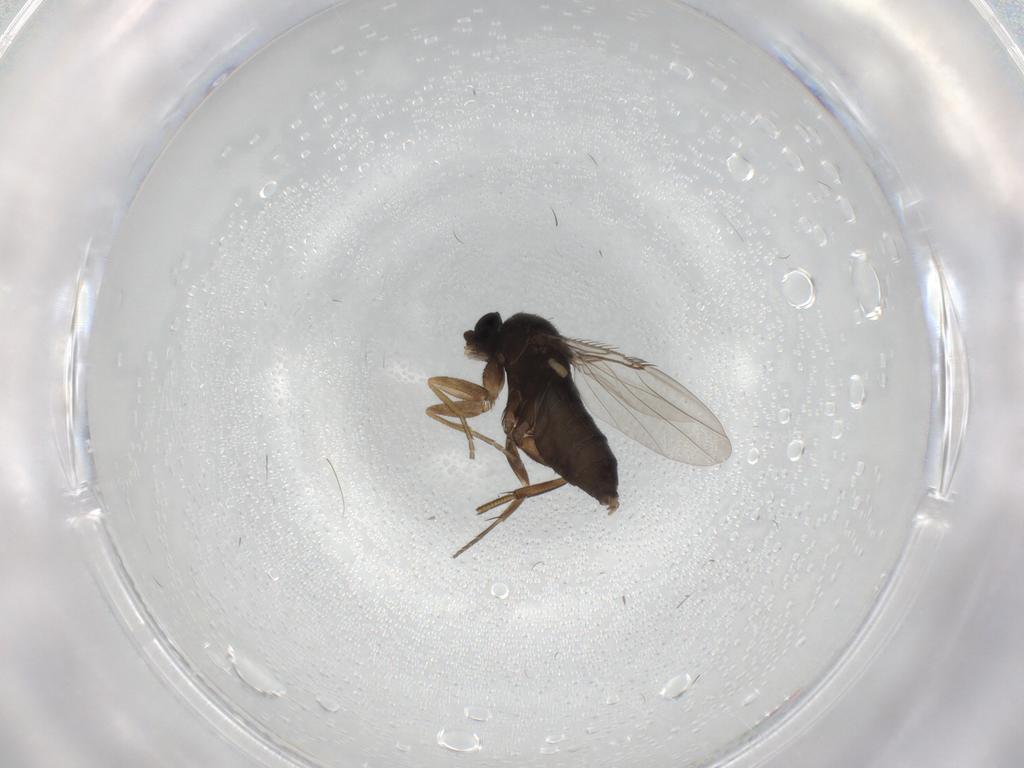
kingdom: Animalia
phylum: Arthropoda
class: Insecta
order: Diptera
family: Phoridae
